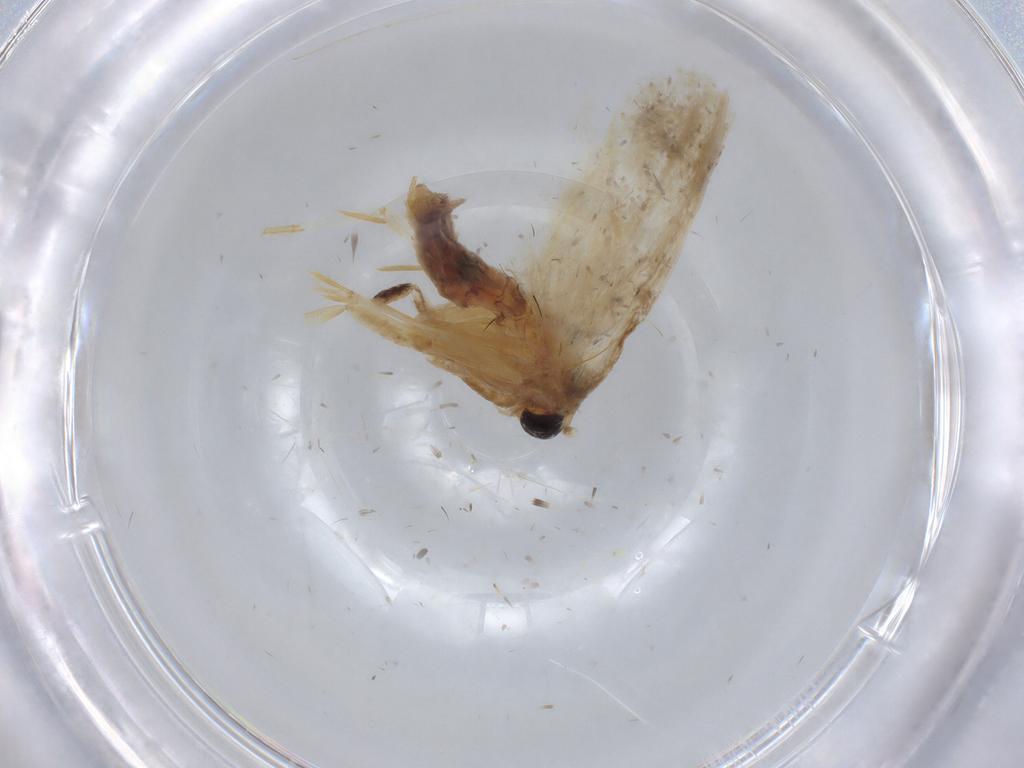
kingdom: Animalia
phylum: Arthropoda
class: Insecta
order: Lepidoptera
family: Gracillariidae
